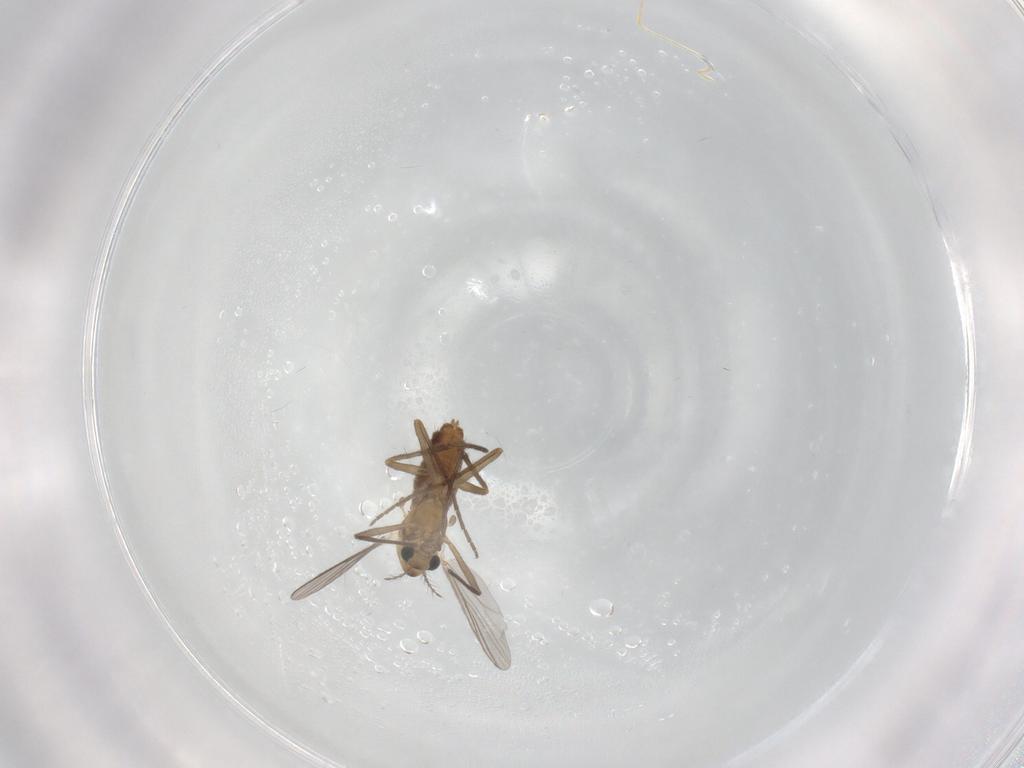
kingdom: Animalia
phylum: Arthropoda
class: Insecta
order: Diptera
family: Chironomidae
